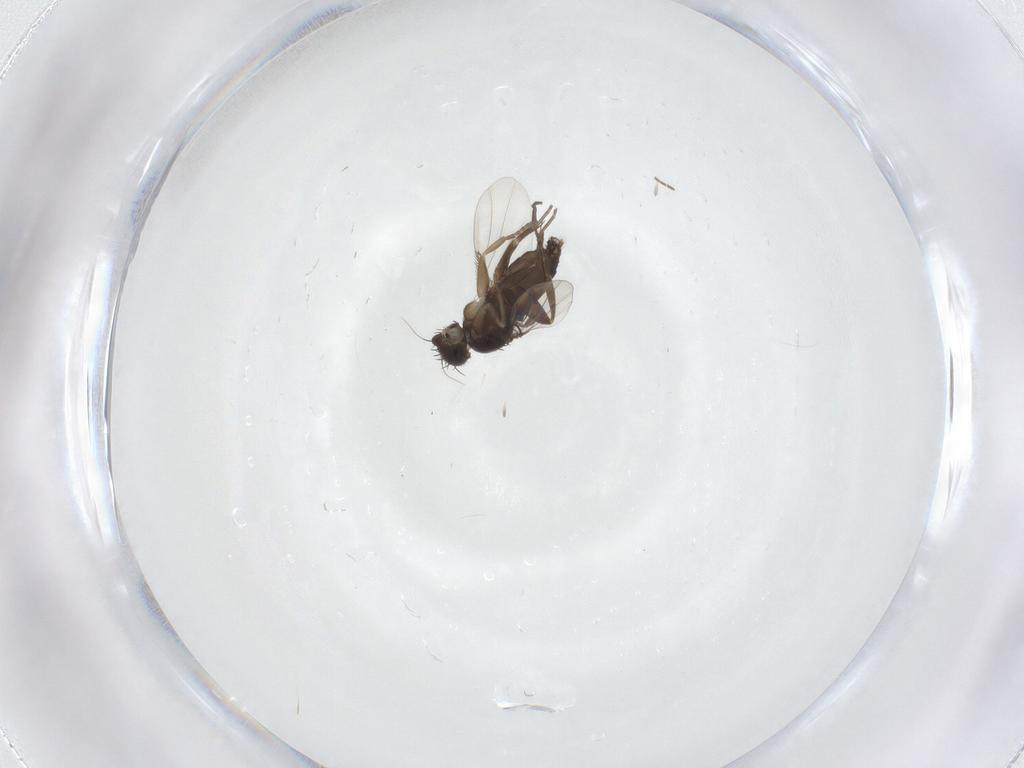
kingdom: Animalia
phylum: Arthropoda
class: Insecta
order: Diptera
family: Phoridae
